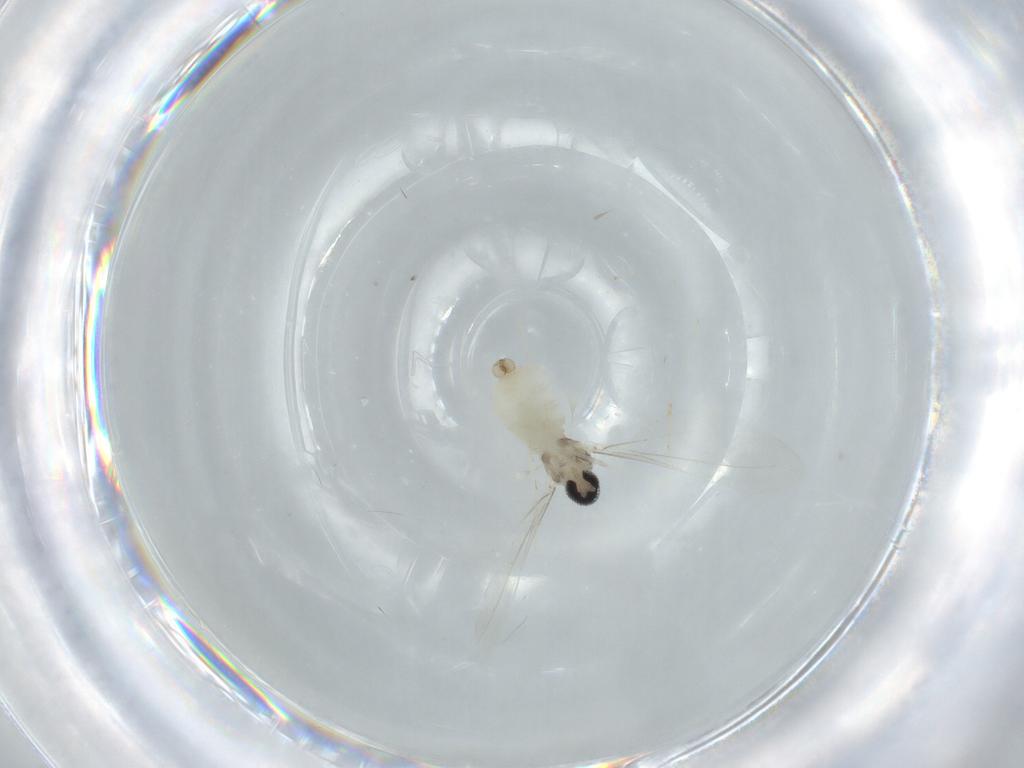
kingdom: Animalia
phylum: Arthropoda
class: Insecta
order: Diptera
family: Cecidomyiidae
